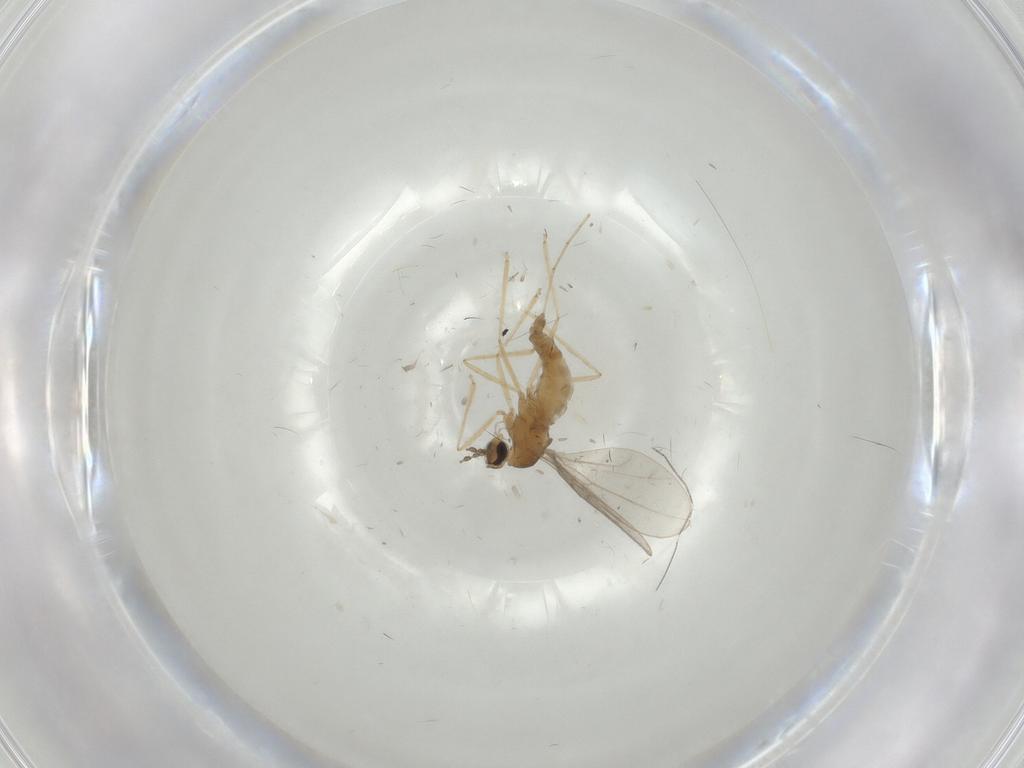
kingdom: Animalia
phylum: Arthropoda
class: Insecta
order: Diptera
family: Cecidomyiidae
